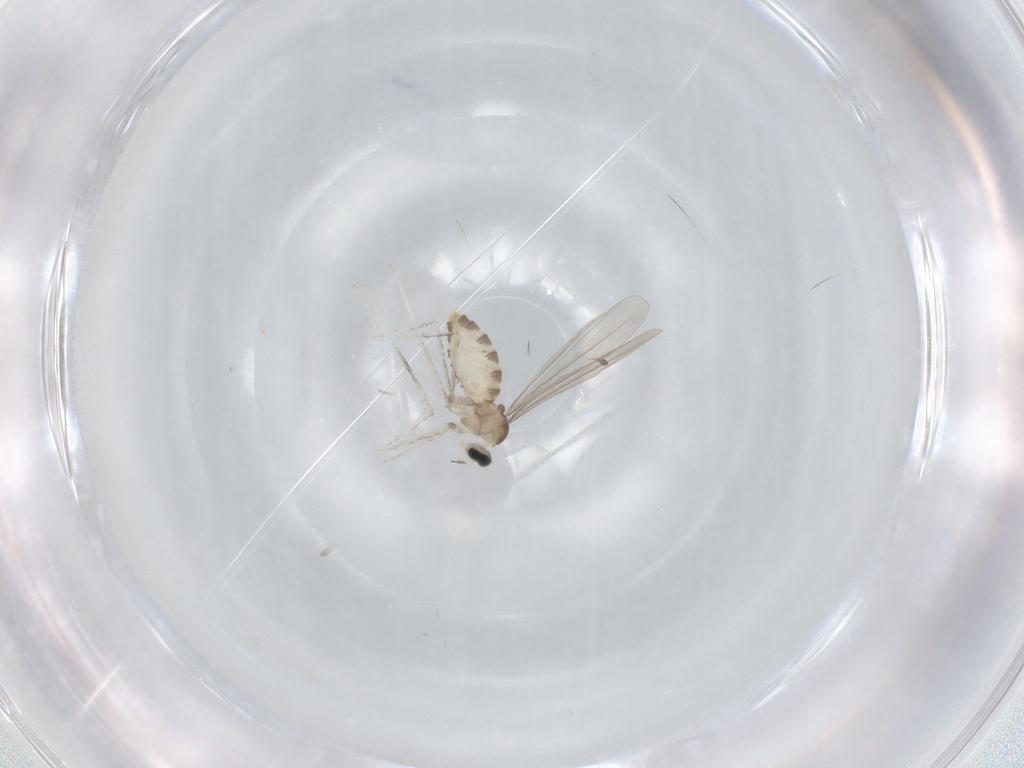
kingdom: Animalia
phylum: Arthropoda
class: Insecta
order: Diptera
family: Cecidomyiidae
